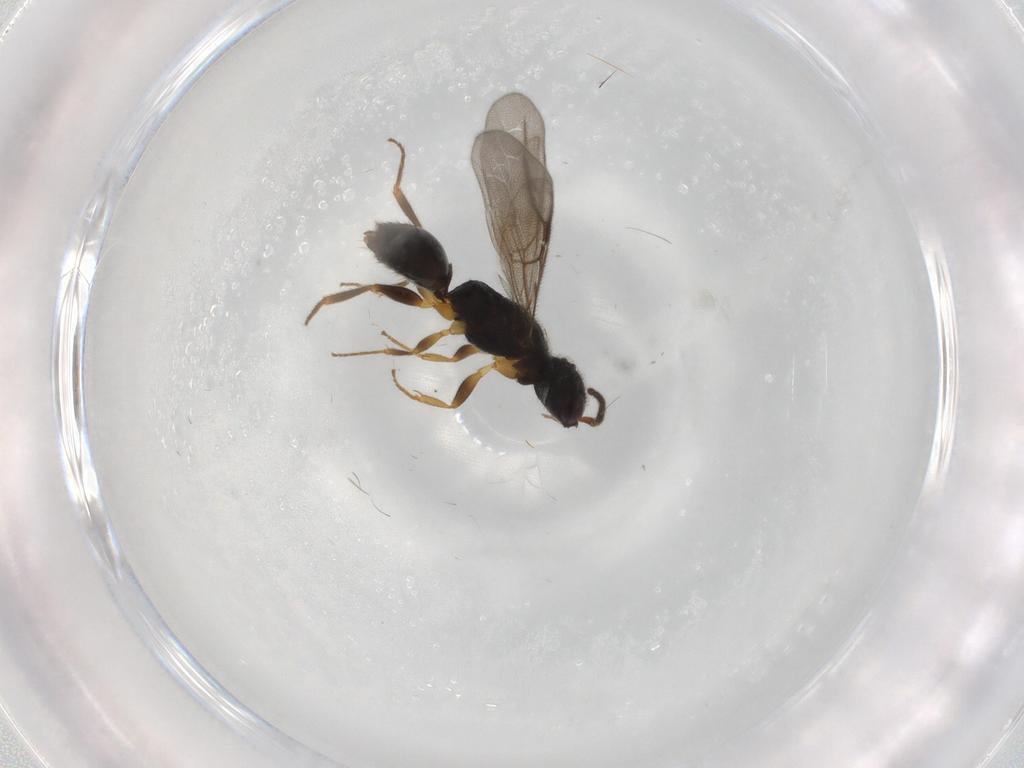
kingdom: Animalia
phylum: Arthropoda
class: Insecta
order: Hymenoptera
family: Bethylidae
